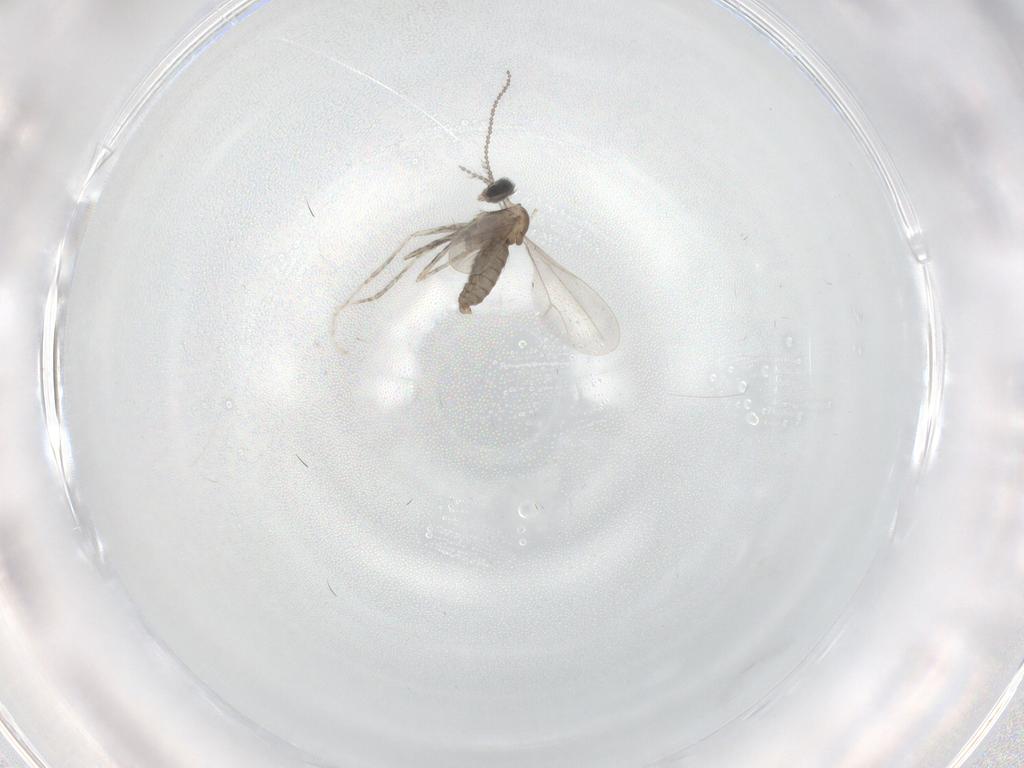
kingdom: Animalia
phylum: Arthropoda
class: Insecta
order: Diptera
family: Cecidomyiidae
